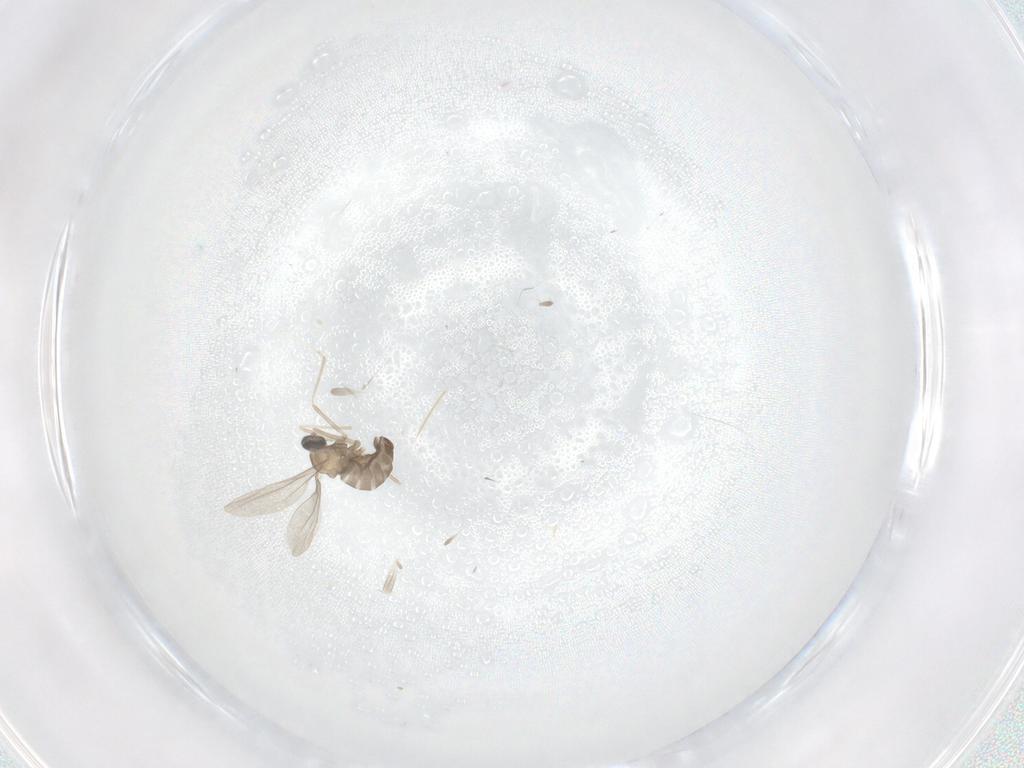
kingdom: Animalia
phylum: Arthropoda
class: Insecta
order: Diptera
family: Cecidomyiidae
